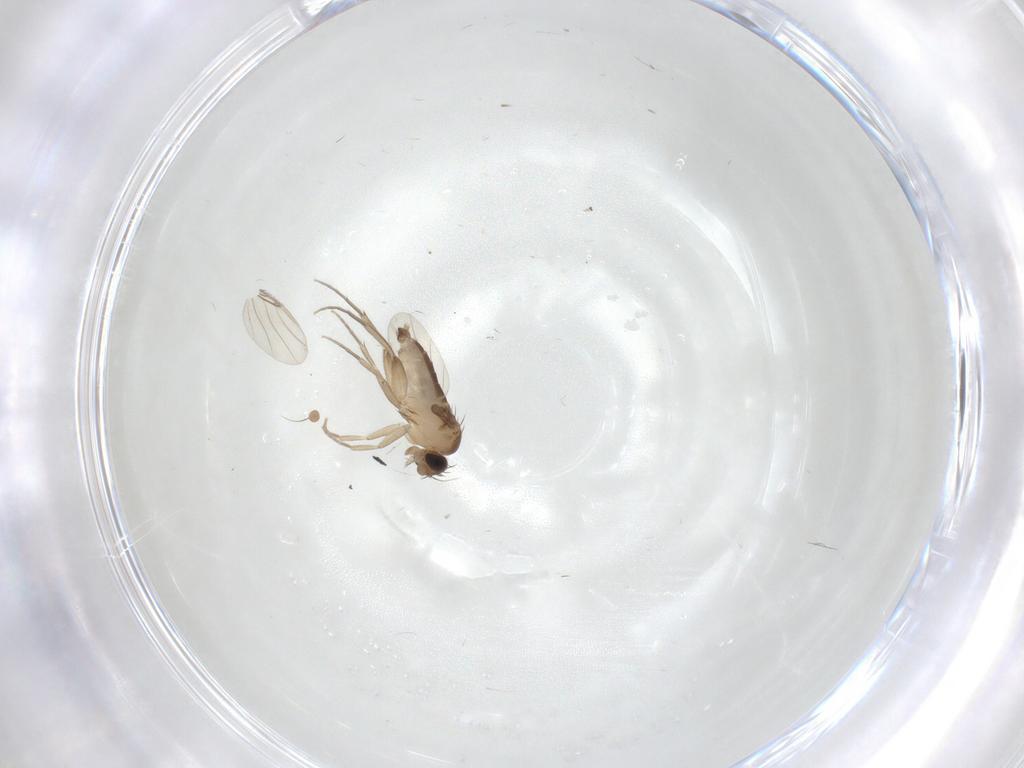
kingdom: Animalia
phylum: Arthropoda
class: Insecta
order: Diptera
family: Phoridae
